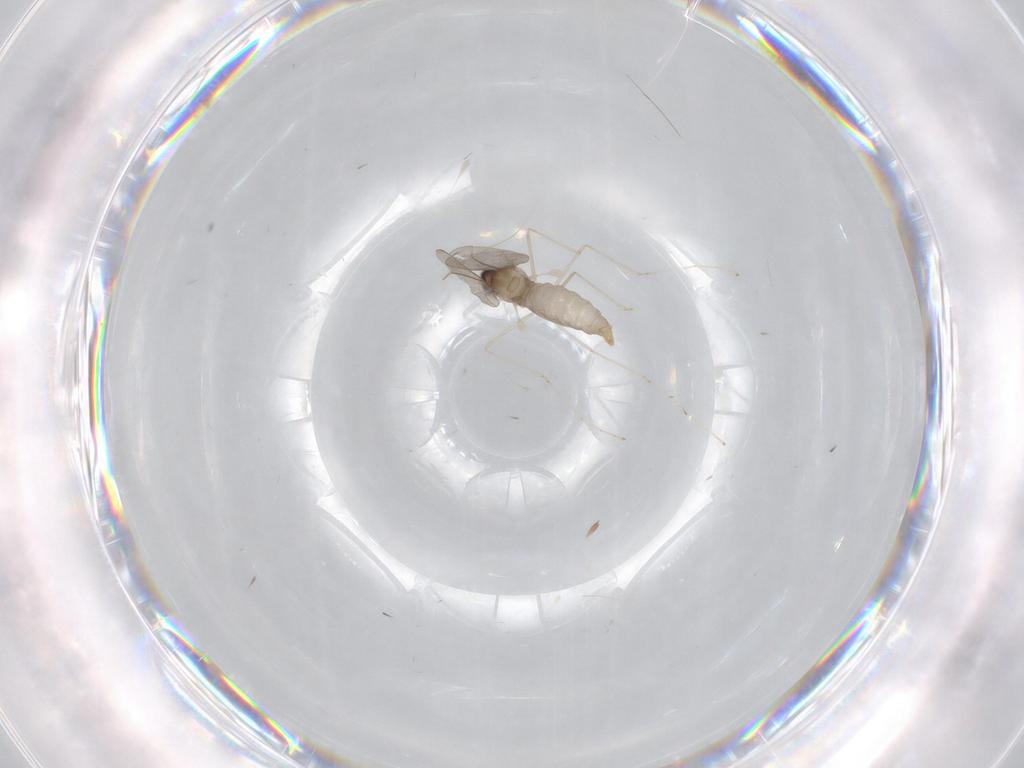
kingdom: Animalia
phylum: Arthropoda
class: Insecta
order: Diptera
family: Cecidomyiidae
